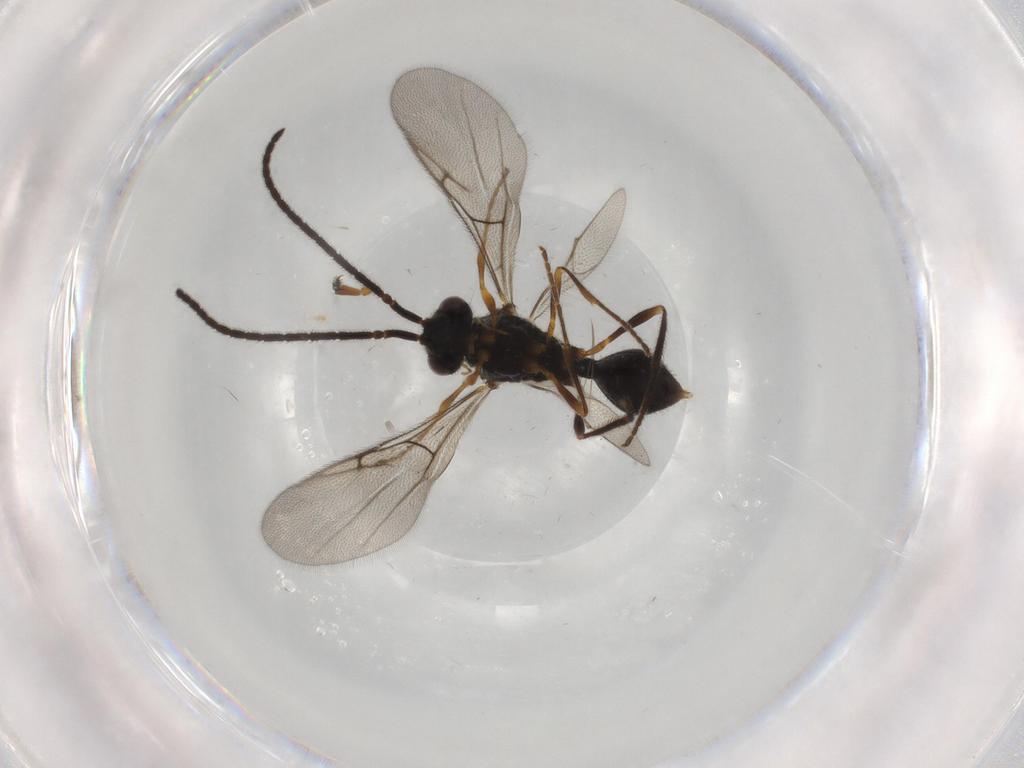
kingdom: Animalia
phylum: Arthropoda
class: Insecta
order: Hymenoptera
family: Diapriidae
